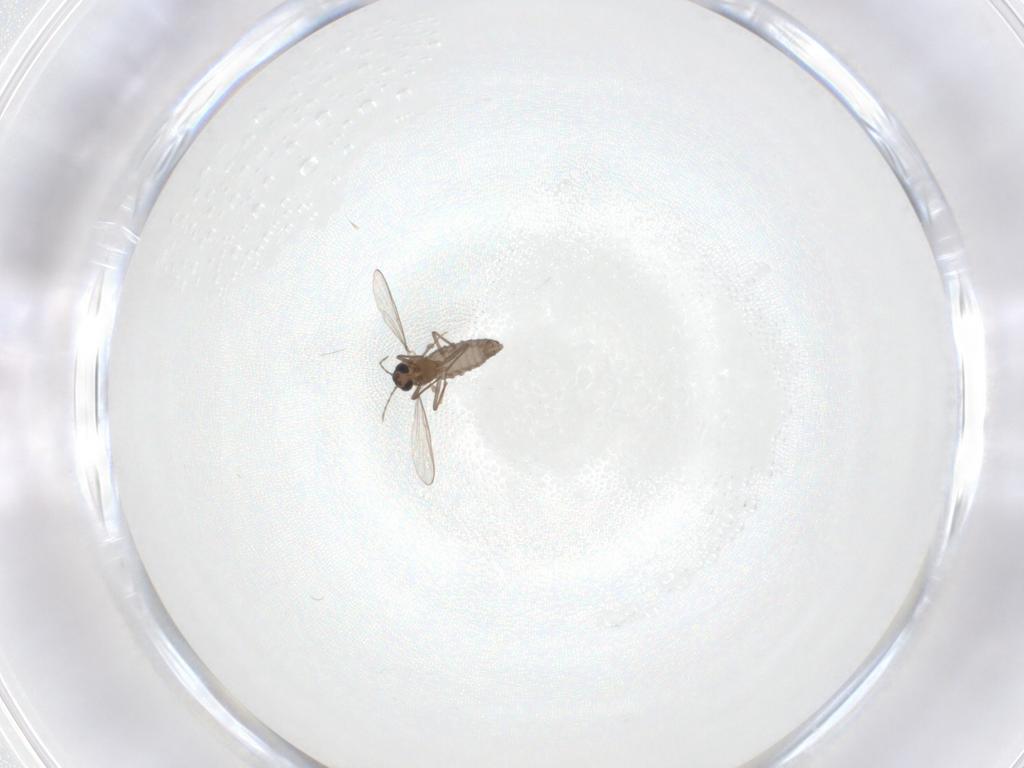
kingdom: Animalia
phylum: Arthropoda
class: Insecta
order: Diptera
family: Chironomidae
